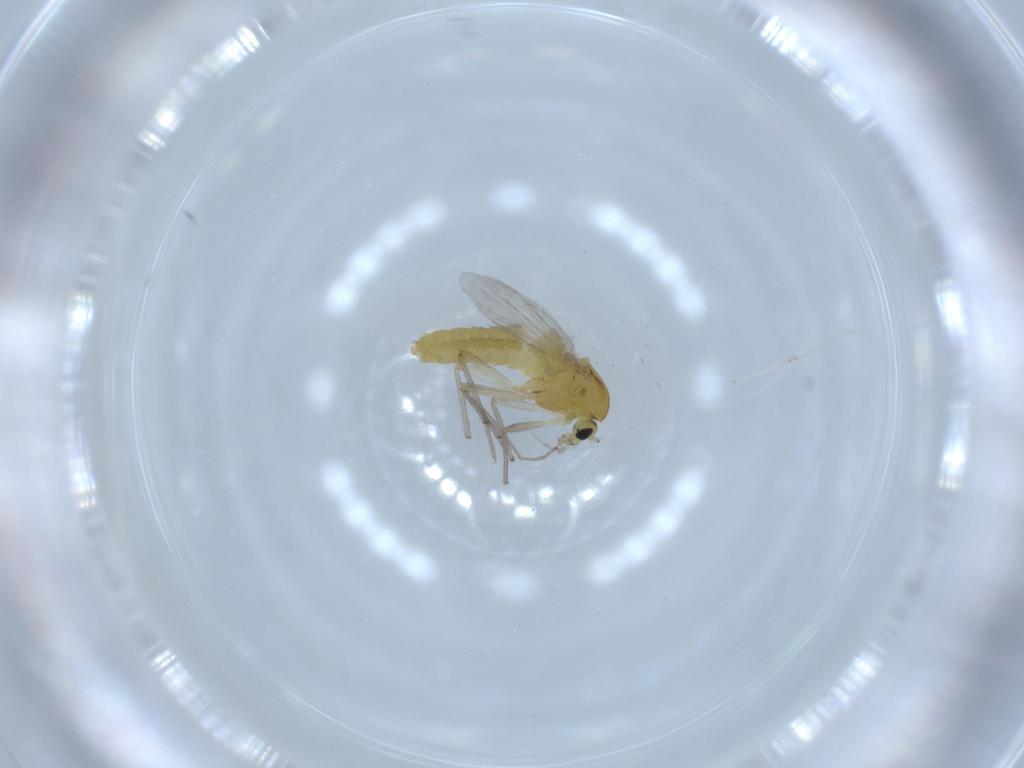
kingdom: Animalia
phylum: Arthropoda
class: Insecta
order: Diptera
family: Chironomidae
